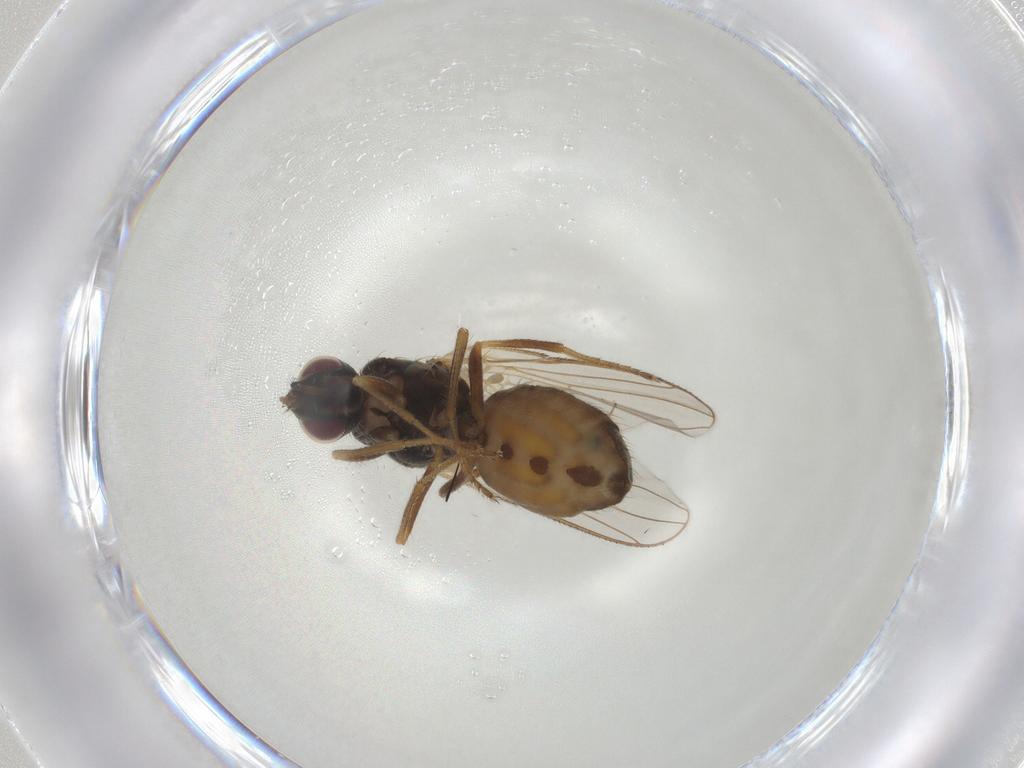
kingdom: Animalia
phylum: Arthropoda
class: Insecta
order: Diptera
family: Muscidae
